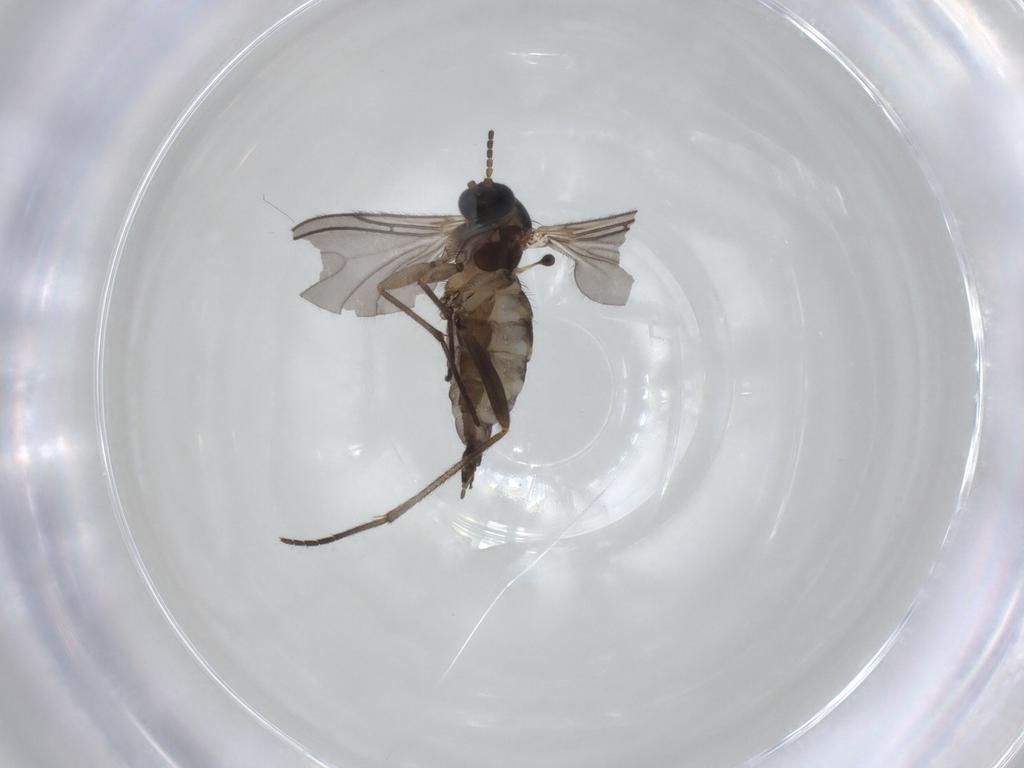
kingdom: Animalia
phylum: Arthropoda
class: Insecta
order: Diptera
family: Sciaridae
